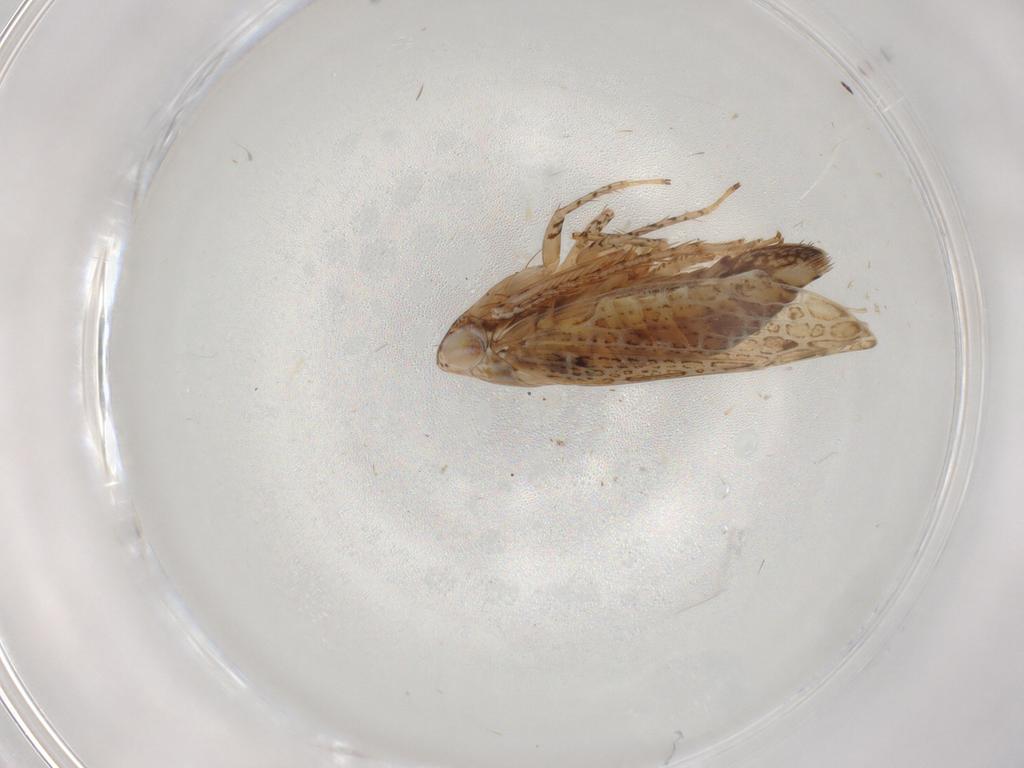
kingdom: Animalia
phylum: Arthropoda
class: Insecta
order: Hemiptera
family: Cicadellidae
